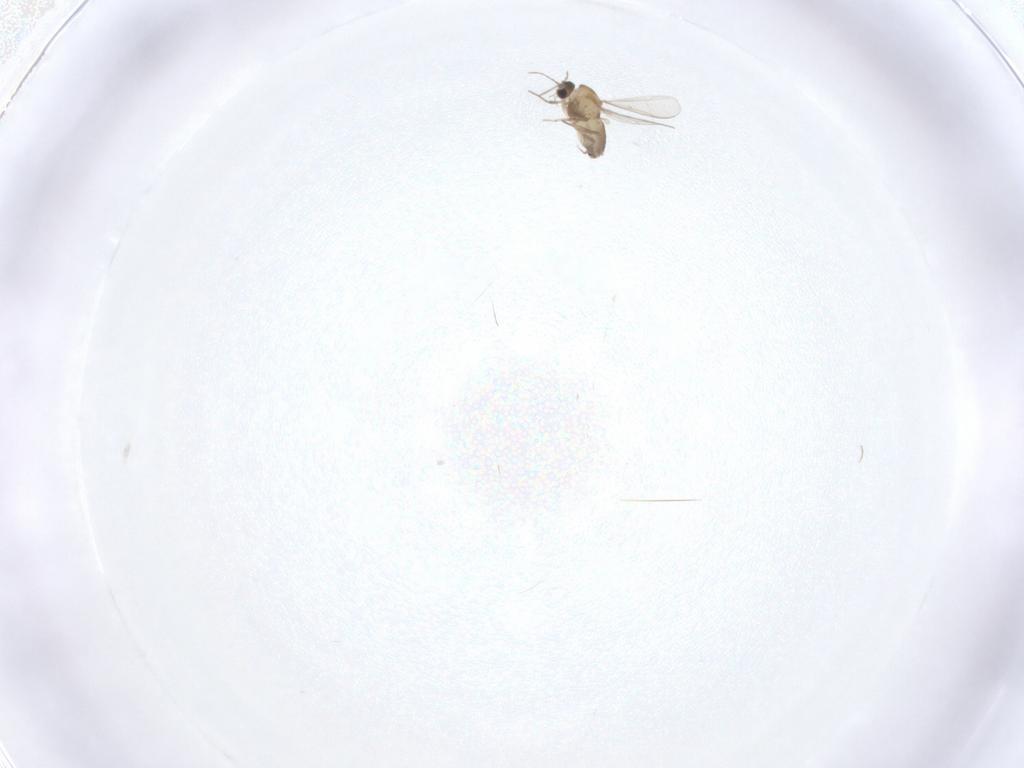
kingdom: Animalia
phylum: Arthropoda
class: Insecta
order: Diptera
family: Chironomidae
